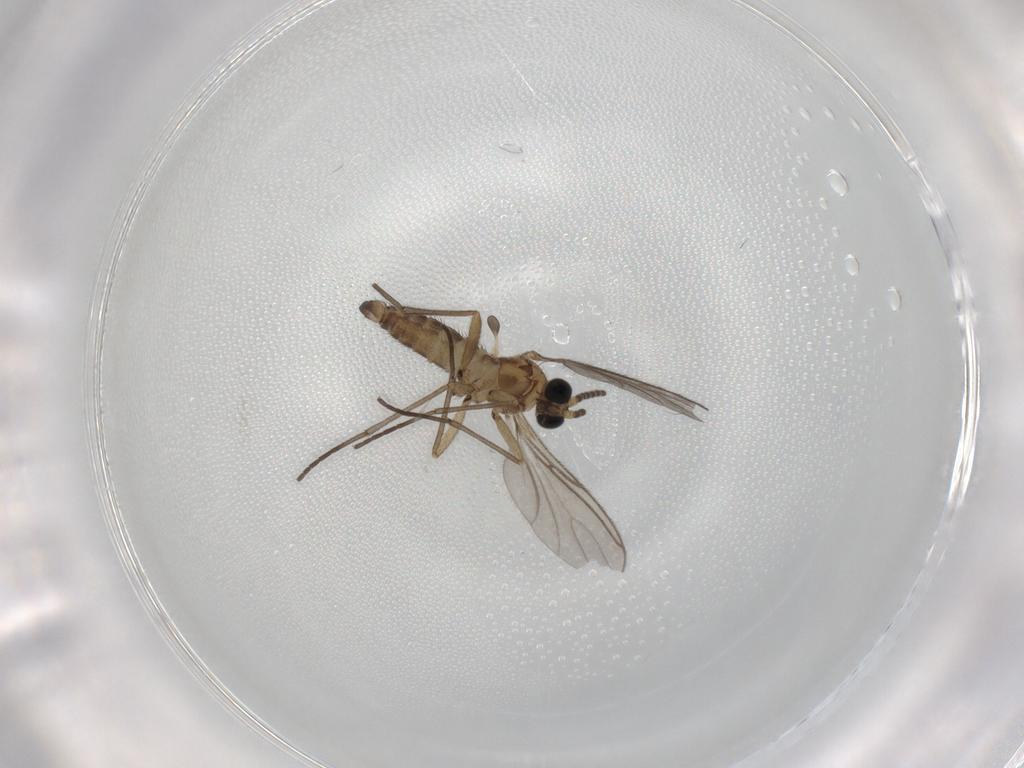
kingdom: Animalia
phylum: Arthropoda
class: Insecta
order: Diptera
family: Sciaridae
